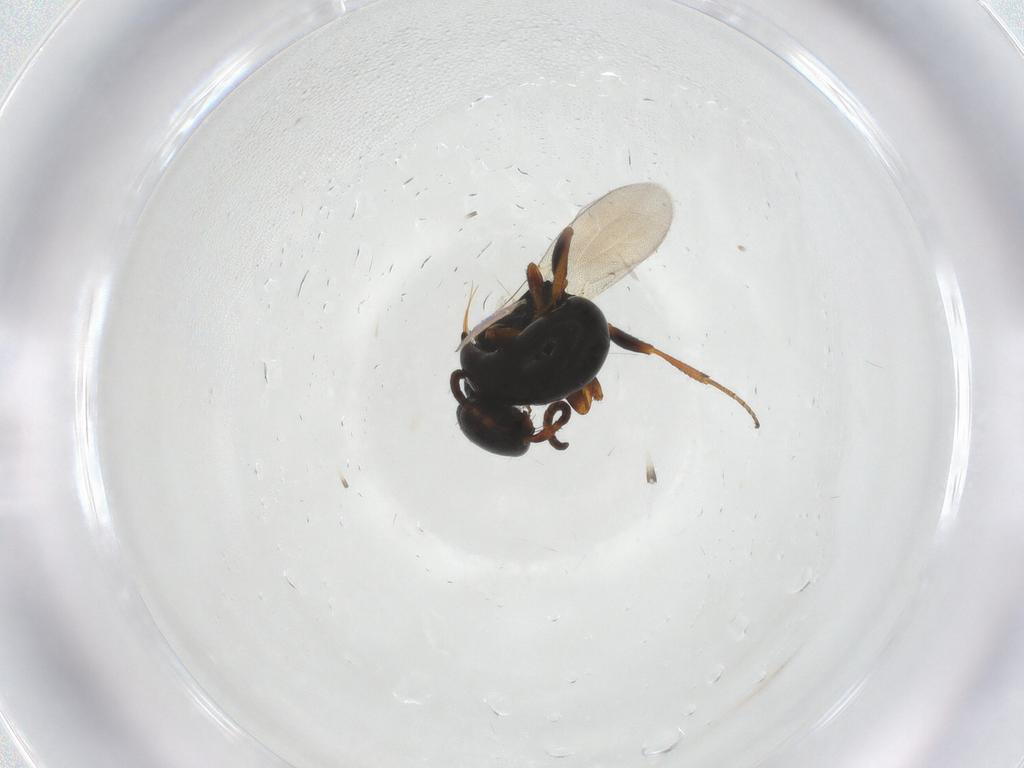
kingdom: Animalia
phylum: Arthropoda
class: Insecta
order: Hymenoptera
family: Bethylidae
